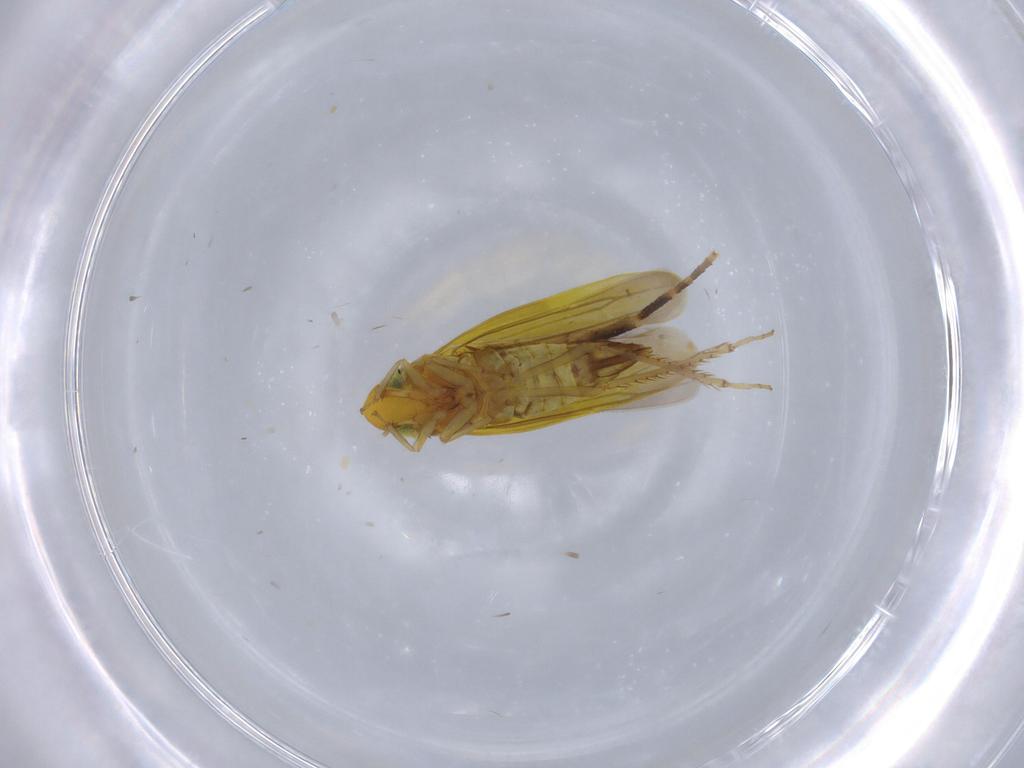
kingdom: Animalia
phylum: Arthropoda
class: Insecta
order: Hemiptera
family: Cicadellidae
